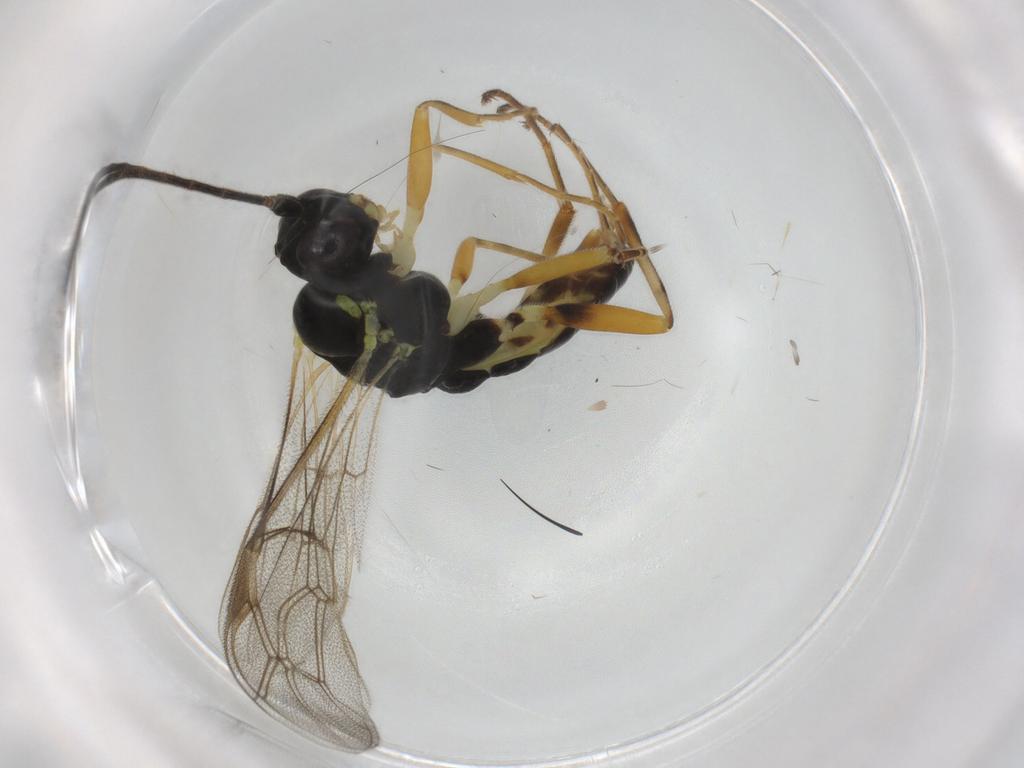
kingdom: Animalia
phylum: Arthropoda
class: Insecta
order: Hymenoptera
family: Ichneumonidae
